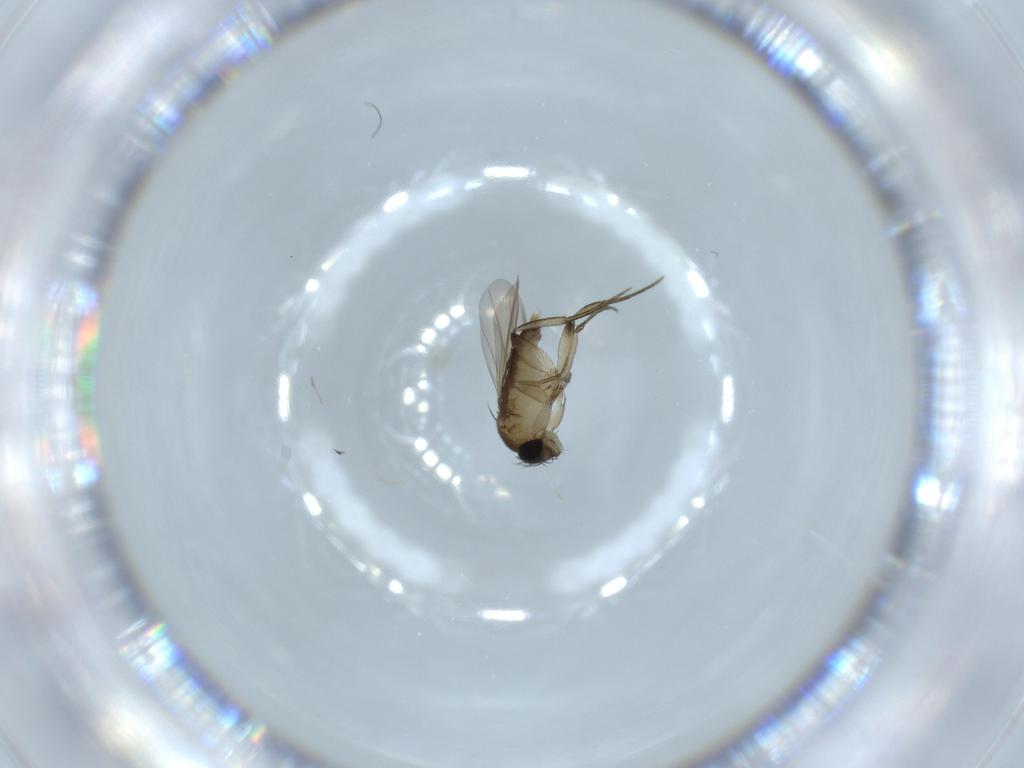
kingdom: Animalia
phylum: Arthropoda
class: Insecta
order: Diptera
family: Phoridae
